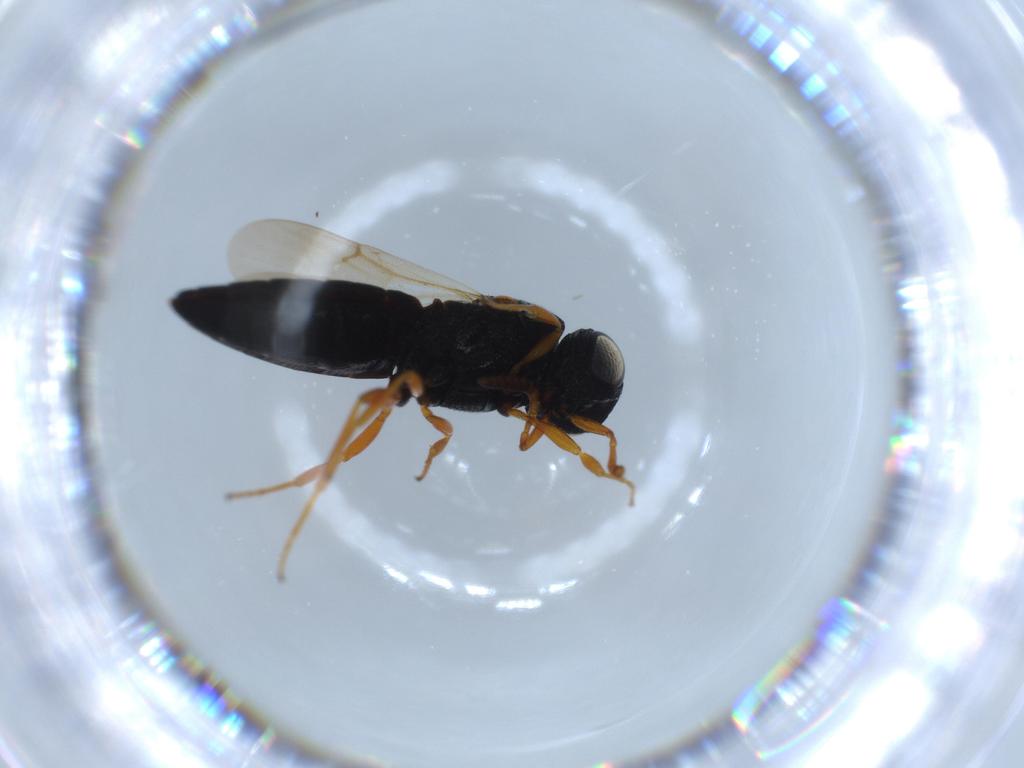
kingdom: Animalia
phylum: Arthropoda
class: Insecta
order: Hymenoptera
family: Scelionidae
